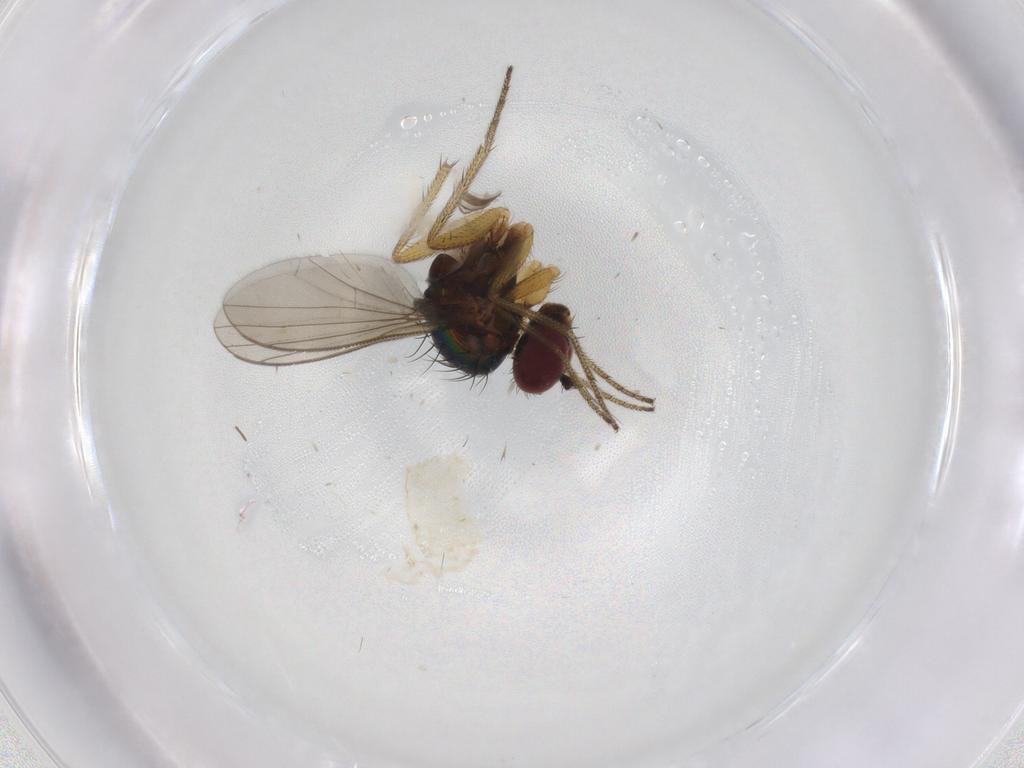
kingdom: Animalia
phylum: Arthropoda
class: Insecta
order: Diptera
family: Dolichopodidae
